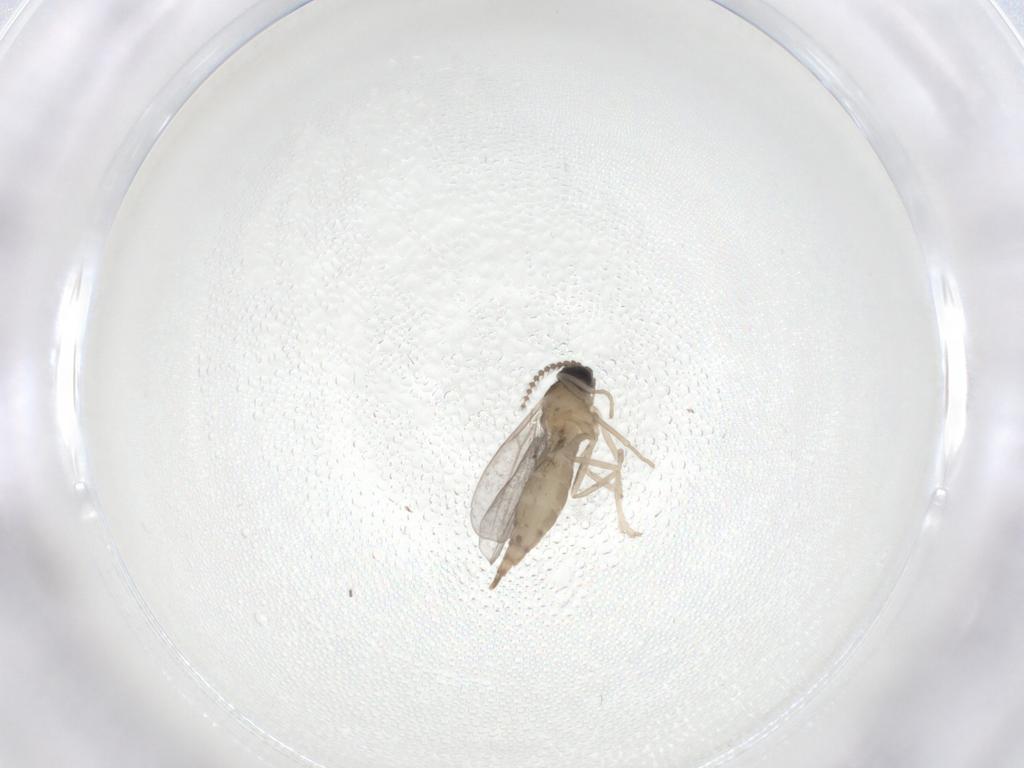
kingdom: Animalia
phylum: Arthropoda
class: Insecta
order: Diptera
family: Cecidomyiidae
